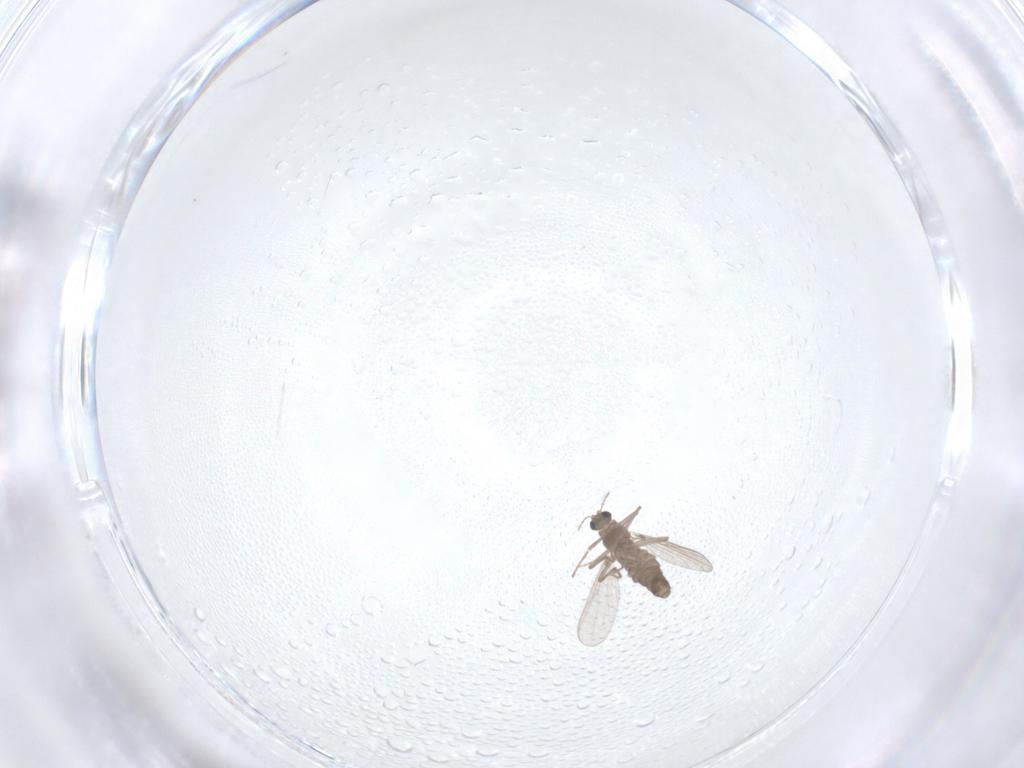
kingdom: Animalia
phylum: Arthropoda
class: Insecta
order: Diptera
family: Chironomidae
